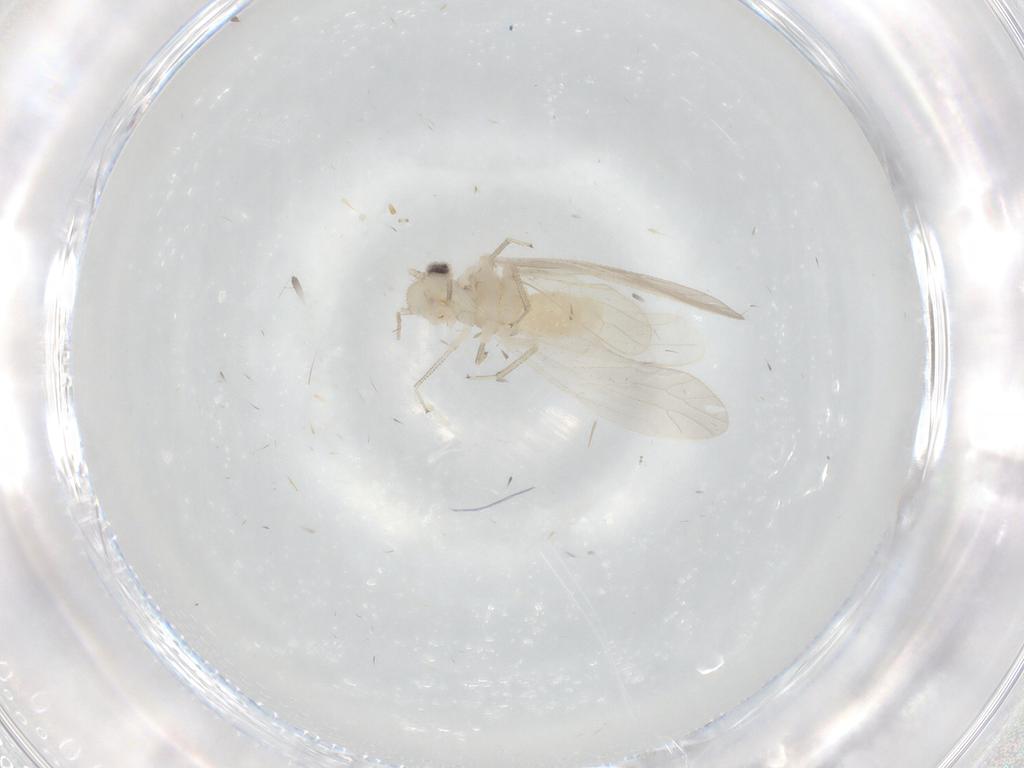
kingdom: Animalia
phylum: Arthropoda
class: Insecta
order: Psocodea
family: Caeciliusidae
